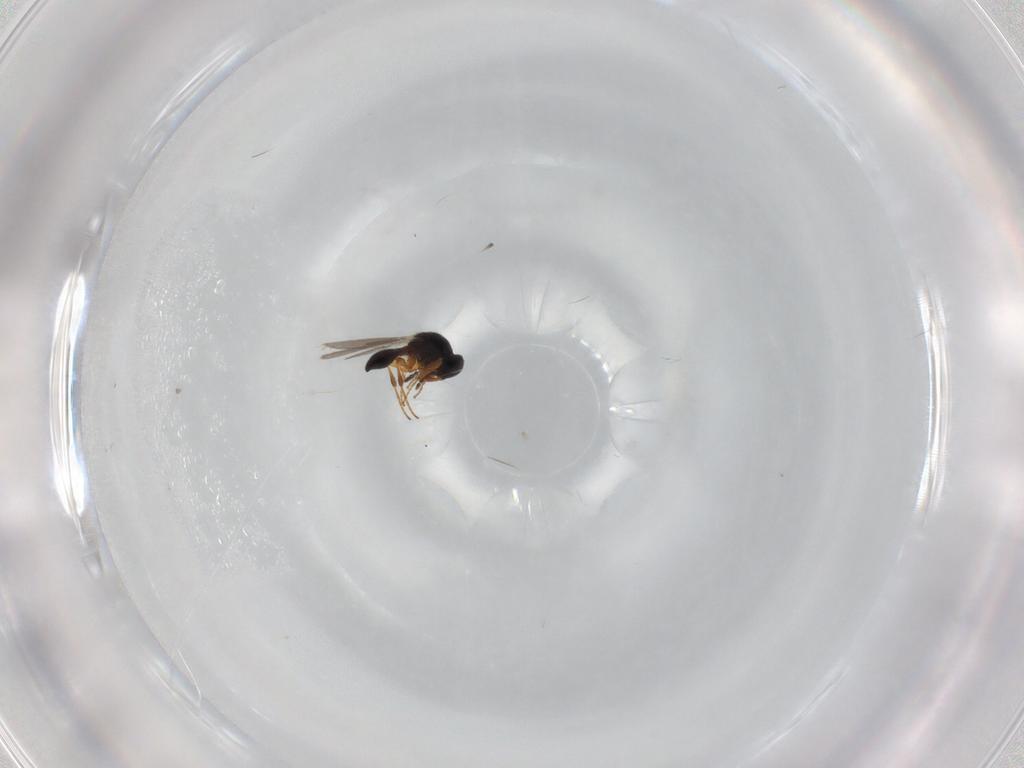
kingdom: Animalia
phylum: Arthropoda
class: Insecta
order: Hymenoptera
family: Platygastridae
